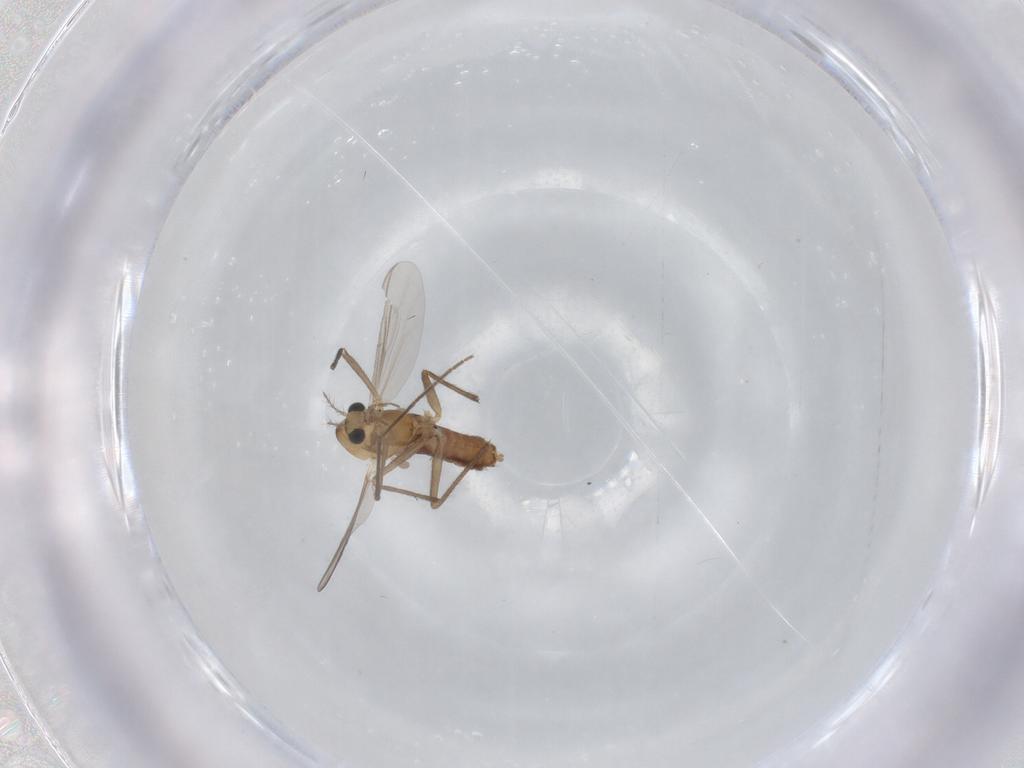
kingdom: Animalia
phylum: Arthropoda
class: Insecta
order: Diptera
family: Chironomidae
